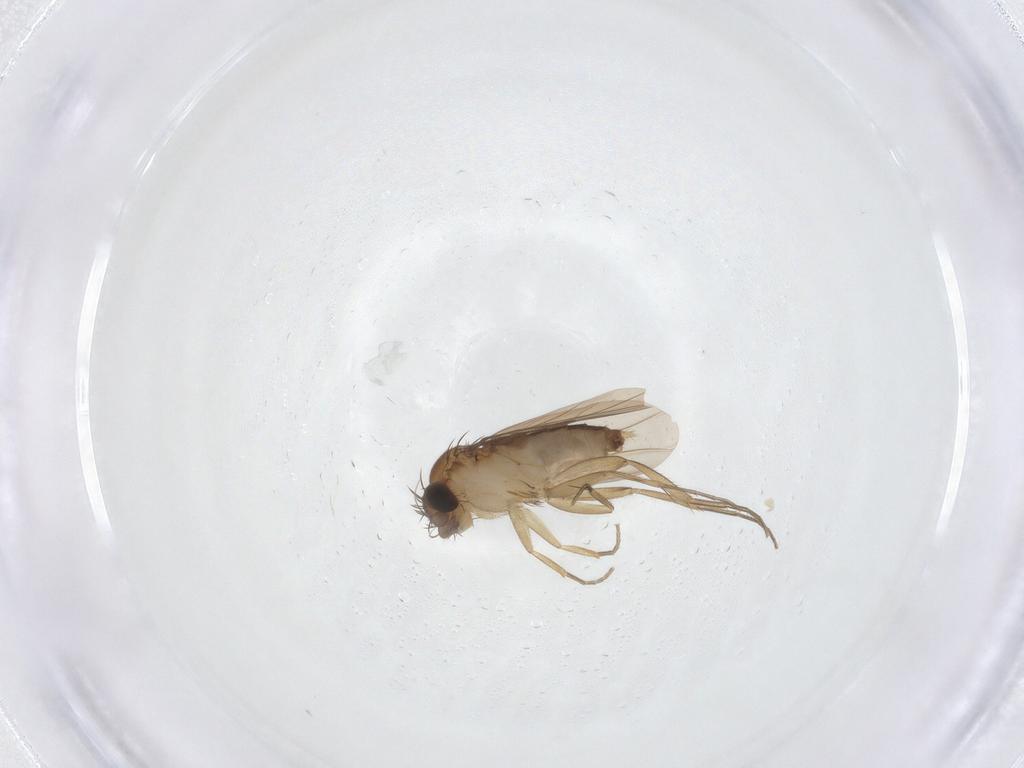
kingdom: Animalia
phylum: Arthropoda
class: Insecta
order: Diptera
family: Phoridae
